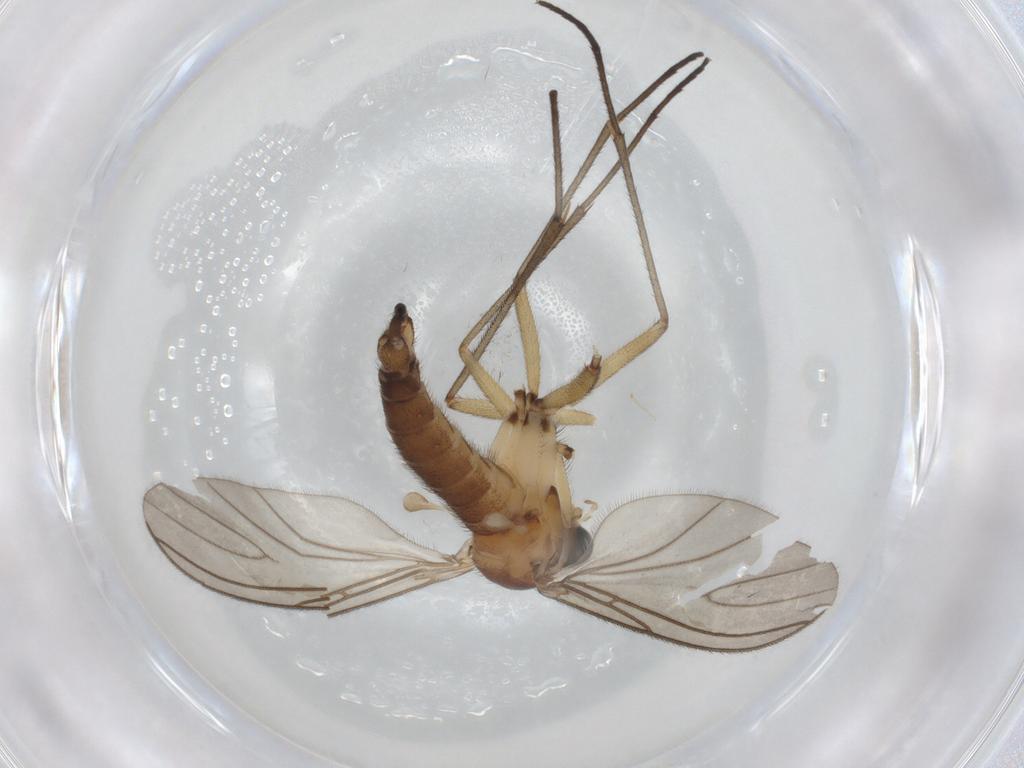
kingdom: Animalia
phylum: Arthropoda
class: Insecta
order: Diptera
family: Sciaridae
